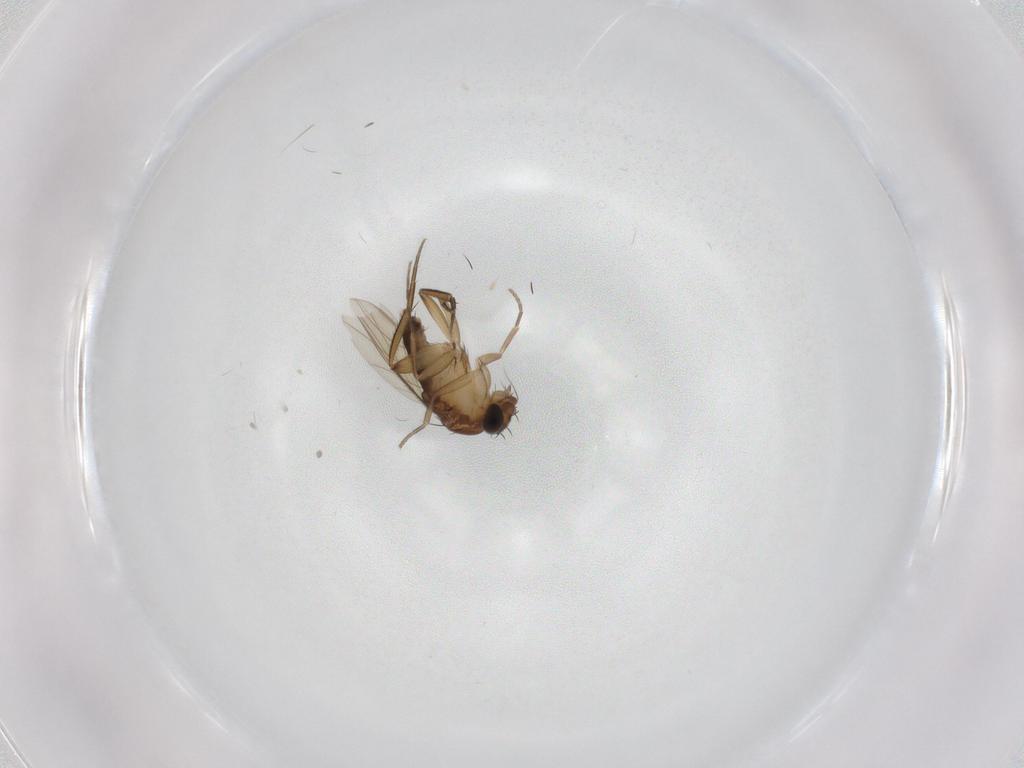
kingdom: Animalia
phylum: Arthropoda
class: Insecta
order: Diptera
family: Phoridae
